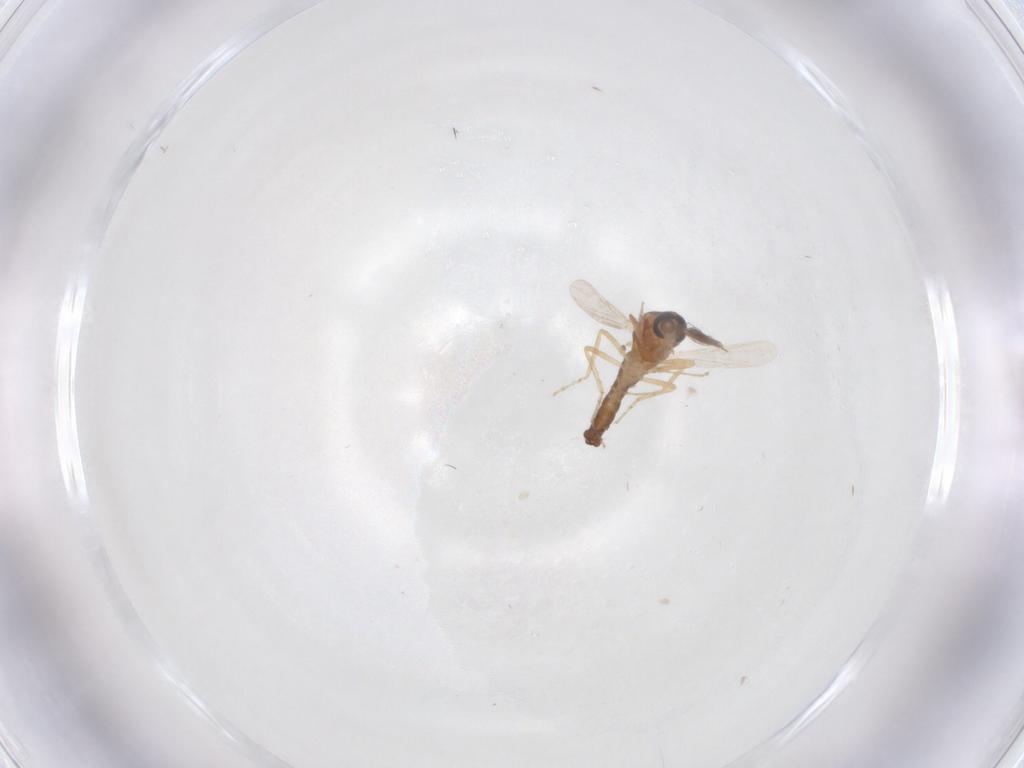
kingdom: Animalia
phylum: Arthropoda
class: Insecta
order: Diptera
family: Ceratopogonidae
